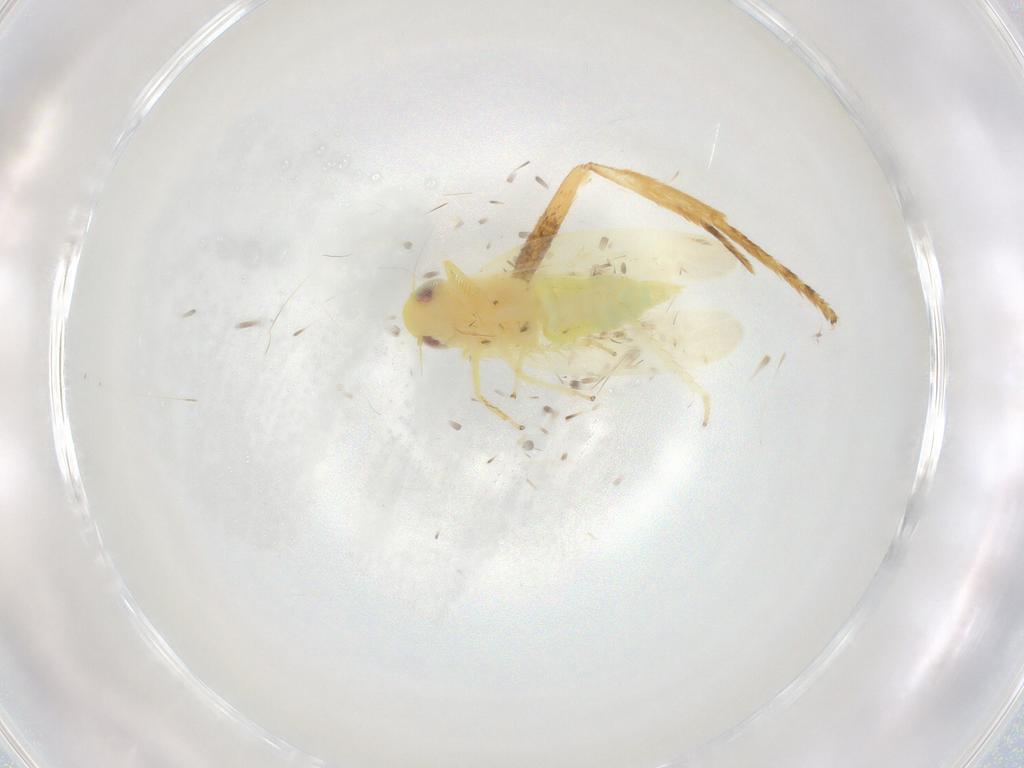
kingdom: Animalia
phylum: Arthropoda
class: Insecta
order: Hemiptera
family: Cicadellidae
